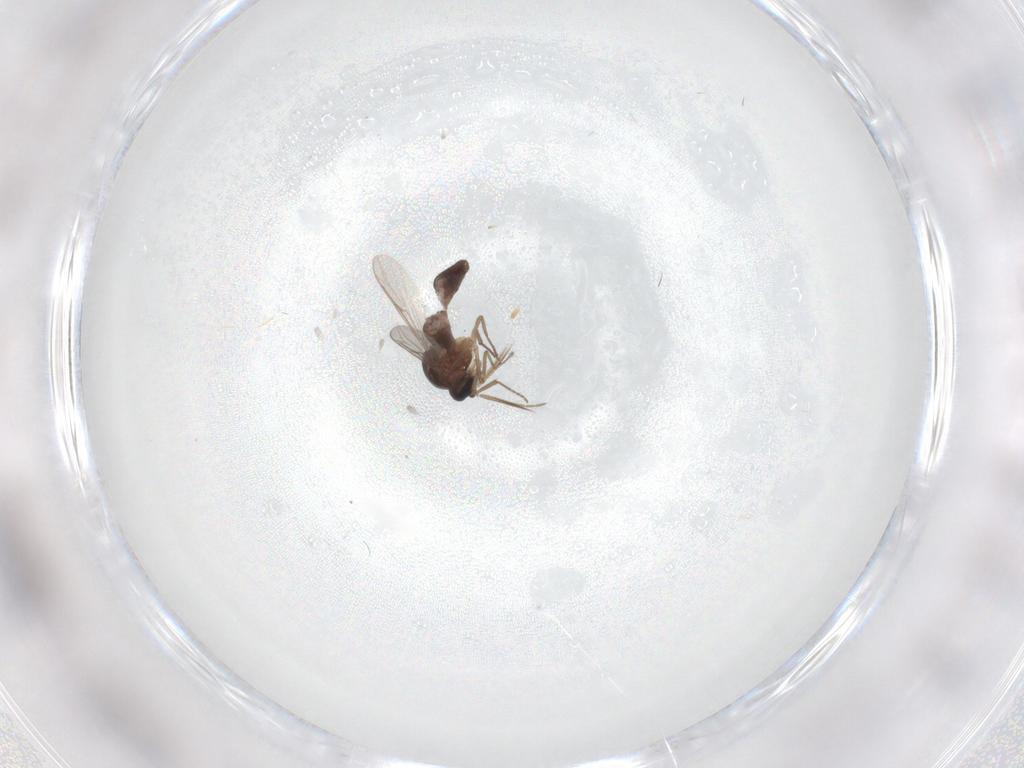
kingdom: Animalia
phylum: Arthropoda
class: Insecta
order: Diptera
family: Ceratopogonidae
